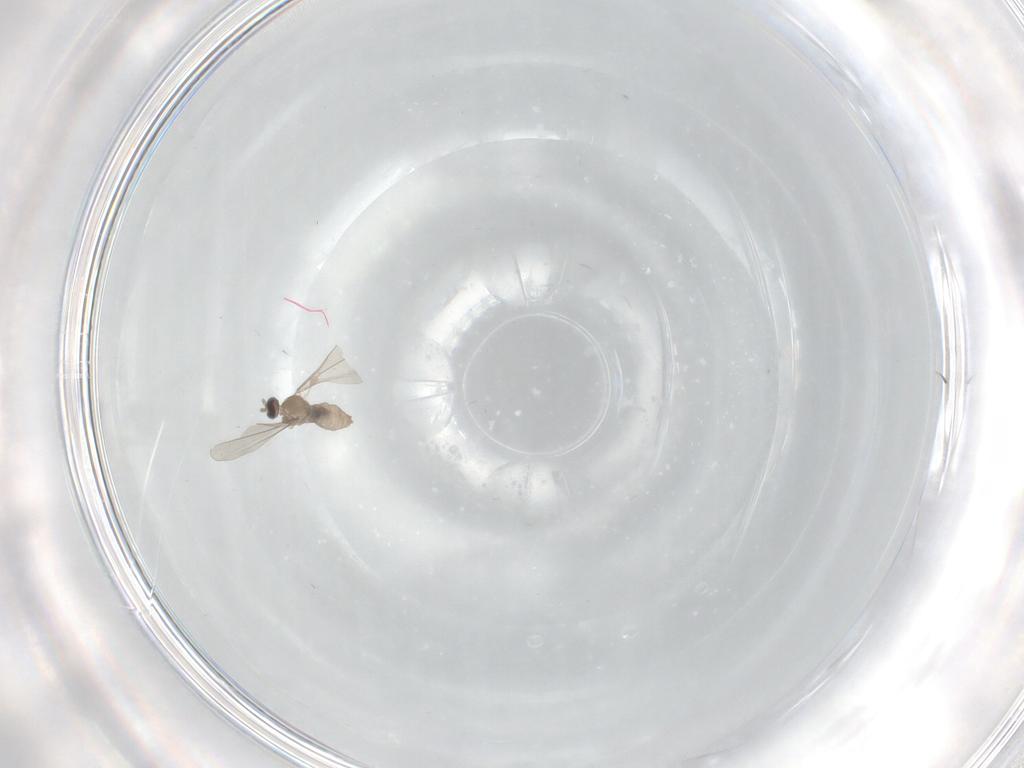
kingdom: Animalia
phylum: Arthropoda
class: Insecta
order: Diptera
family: Cecidomyiidae
